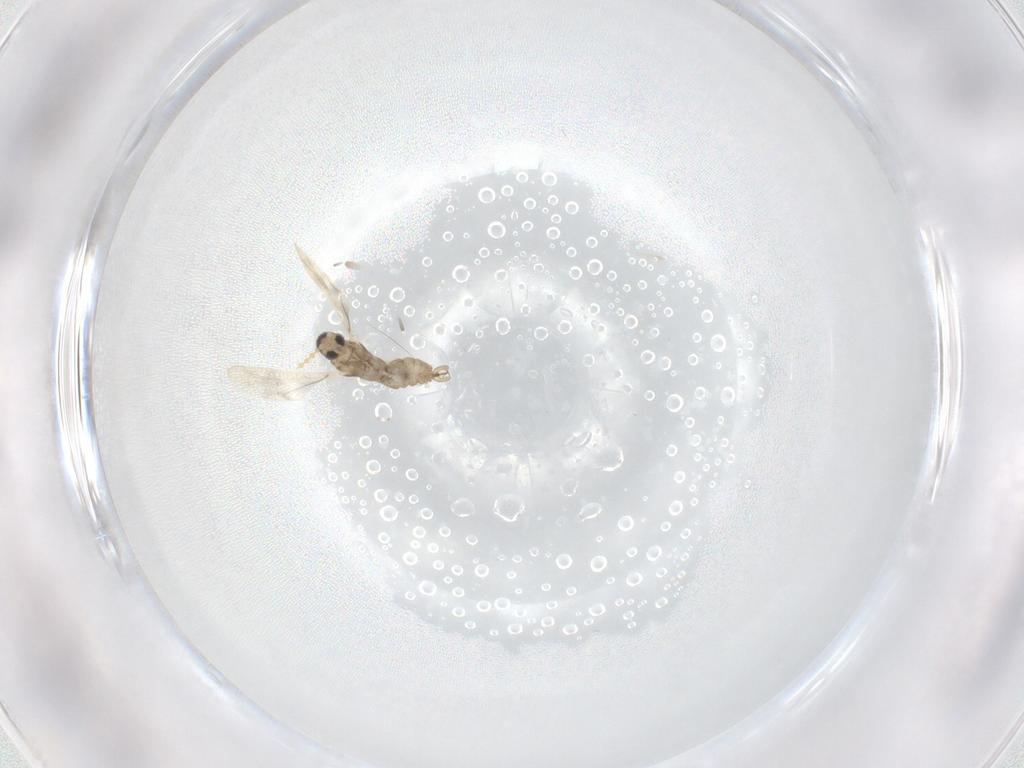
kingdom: Animalia
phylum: Arthropoda
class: Insecta
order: Diptera
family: Cecidomyiidae
